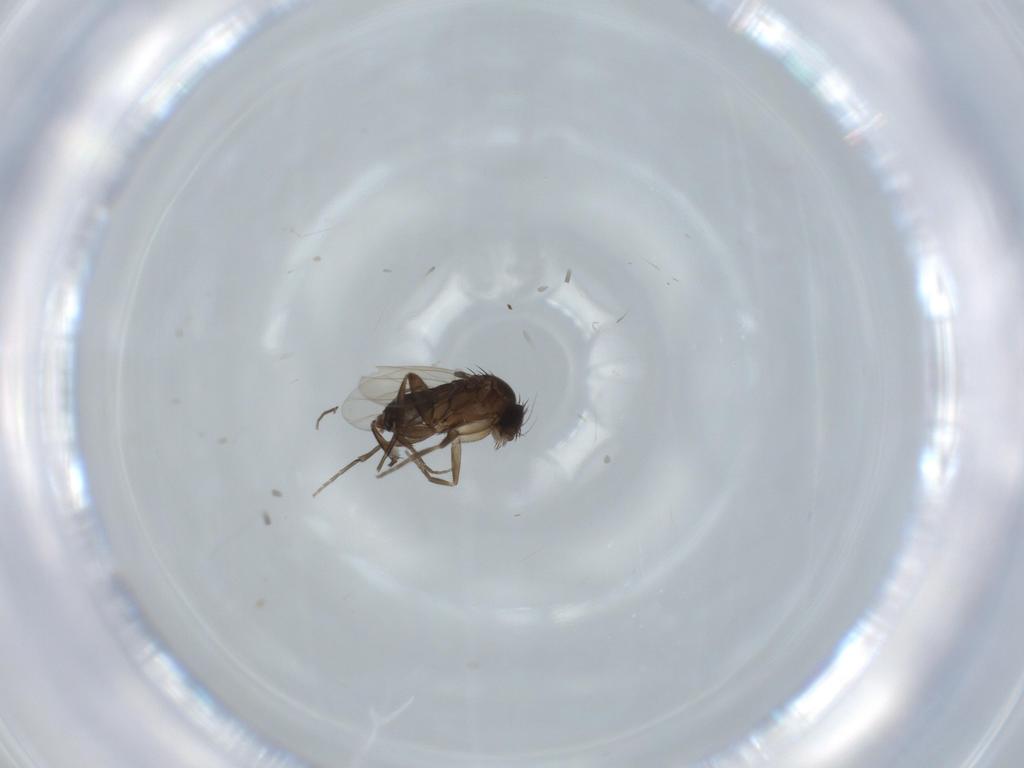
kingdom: Animalia
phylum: Arthropoda
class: Insecta
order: Diptera
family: Phoridae
